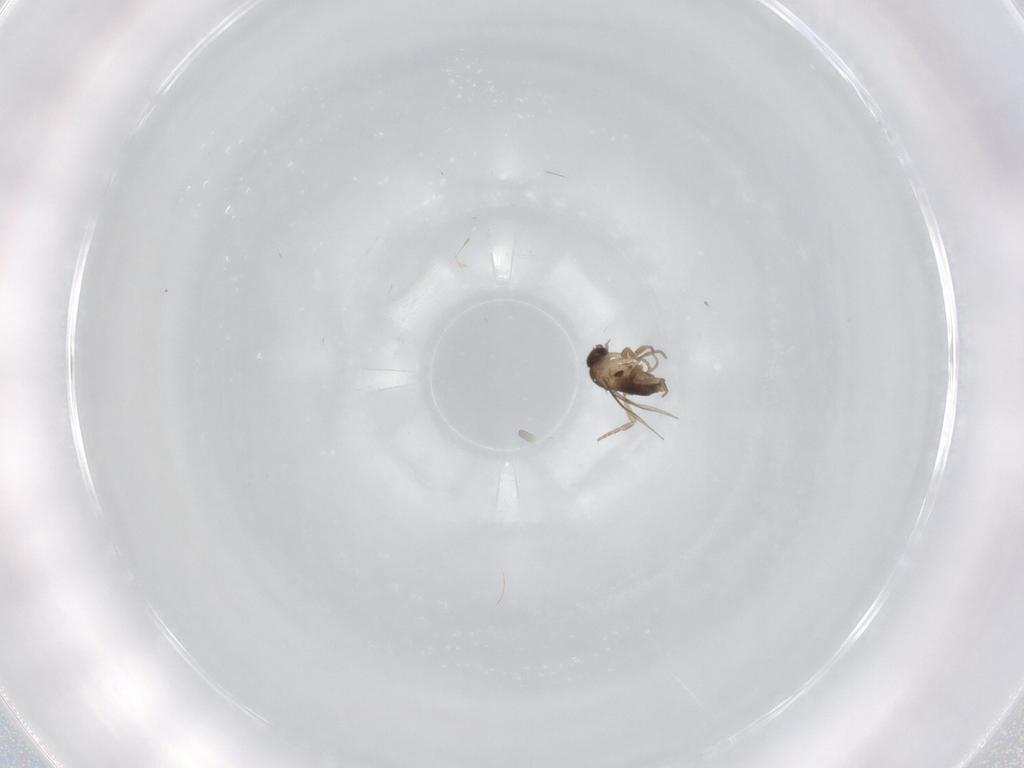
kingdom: Animalia
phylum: Arthropoda
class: Insecta
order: Diptera
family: Phoridae
